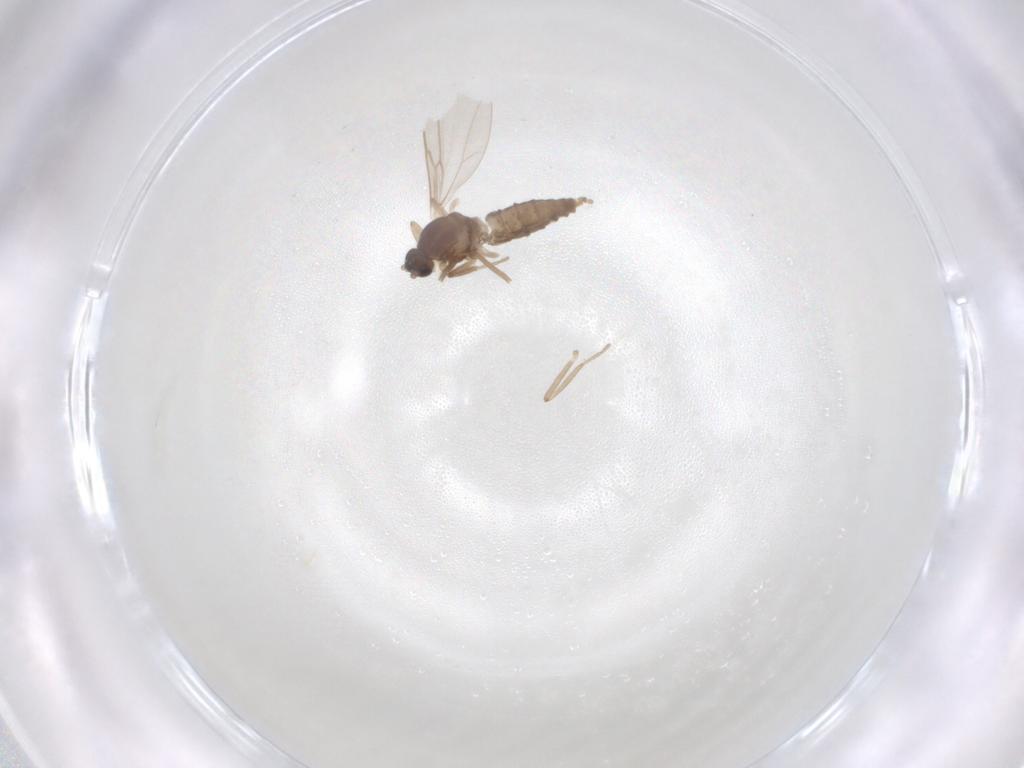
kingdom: Animalia
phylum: Arthropoda
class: Insecta
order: Diptera
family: Cecidomyiidae
